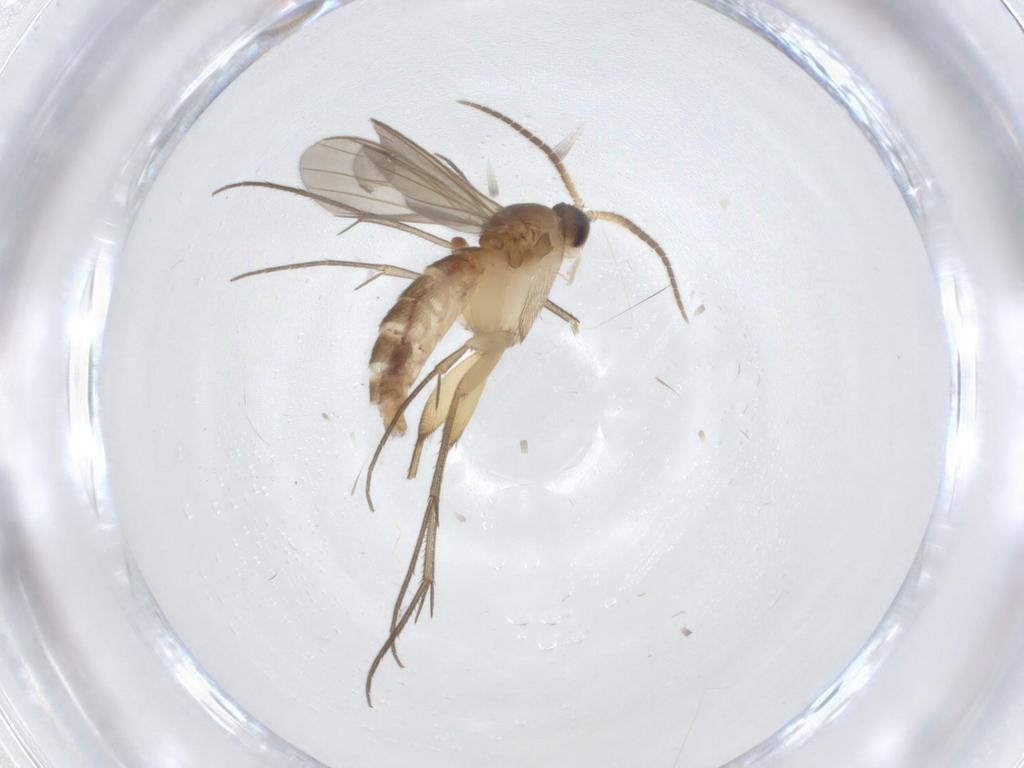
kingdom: Animalia
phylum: Arthropoda
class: Insecta
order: Diptera
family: Mycetophilidae
